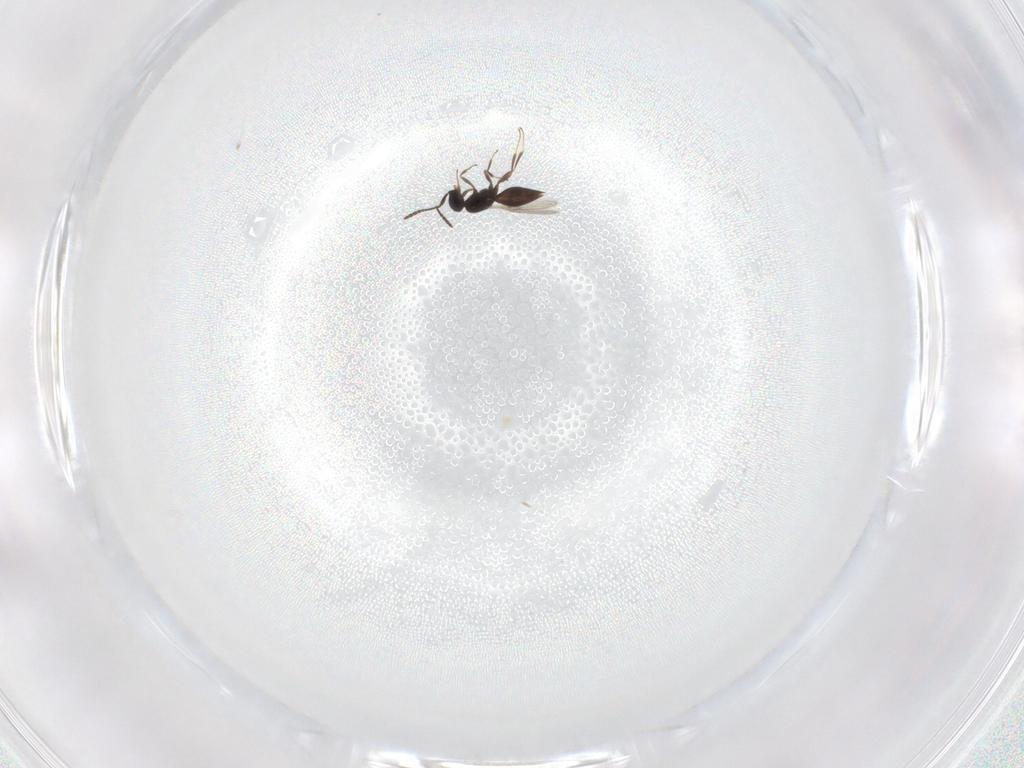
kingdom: Animalia
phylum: Arthropoda
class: Insecta
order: Hymenoptera
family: Scelionidae
